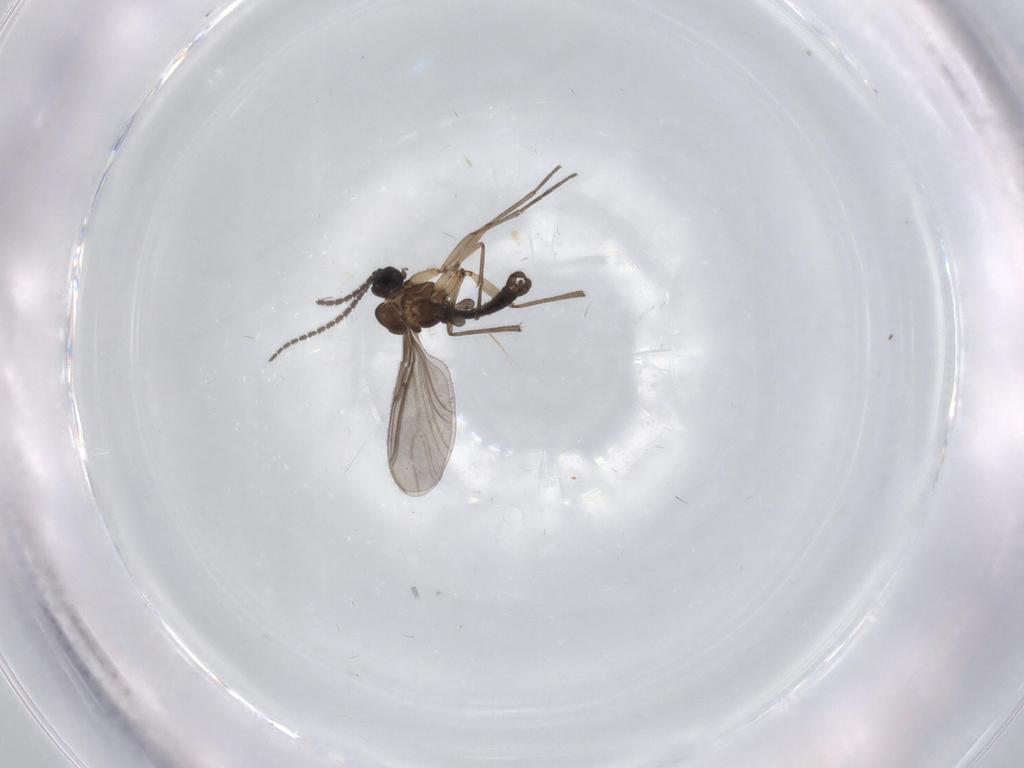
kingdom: Animalia
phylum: Arthropoda
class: Insecta
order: Diptera
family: Sciaridae
